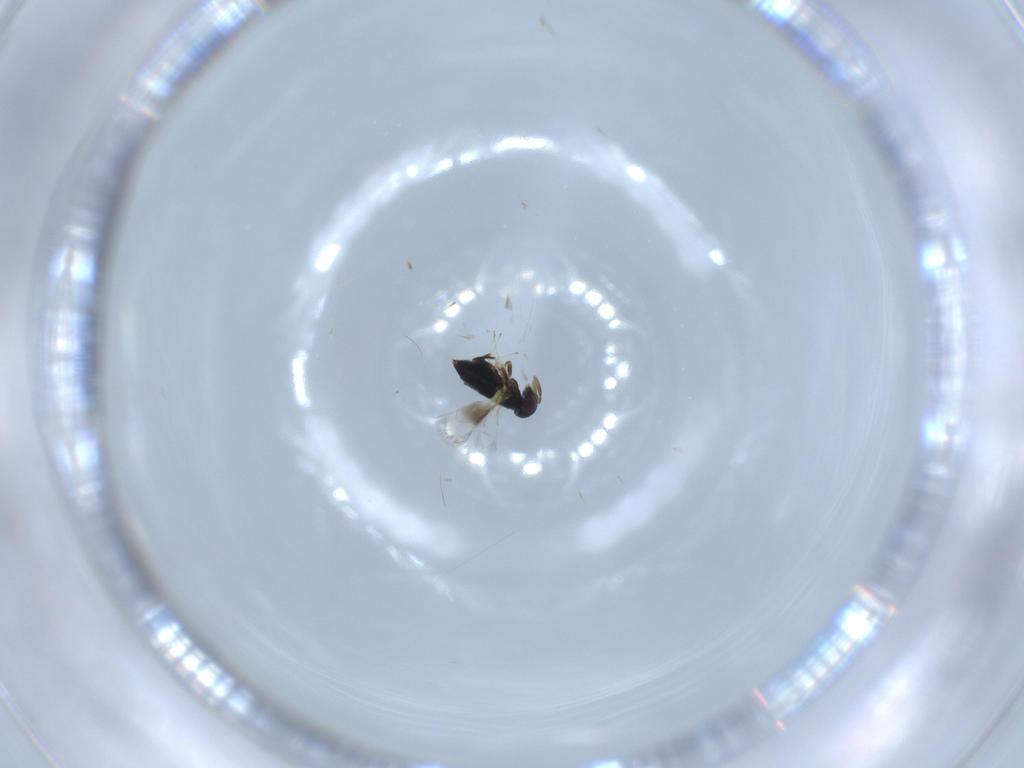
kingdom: Animalia
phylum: Arthropoda
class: Insecta
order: Hymenoptera
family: Signiphoridae
